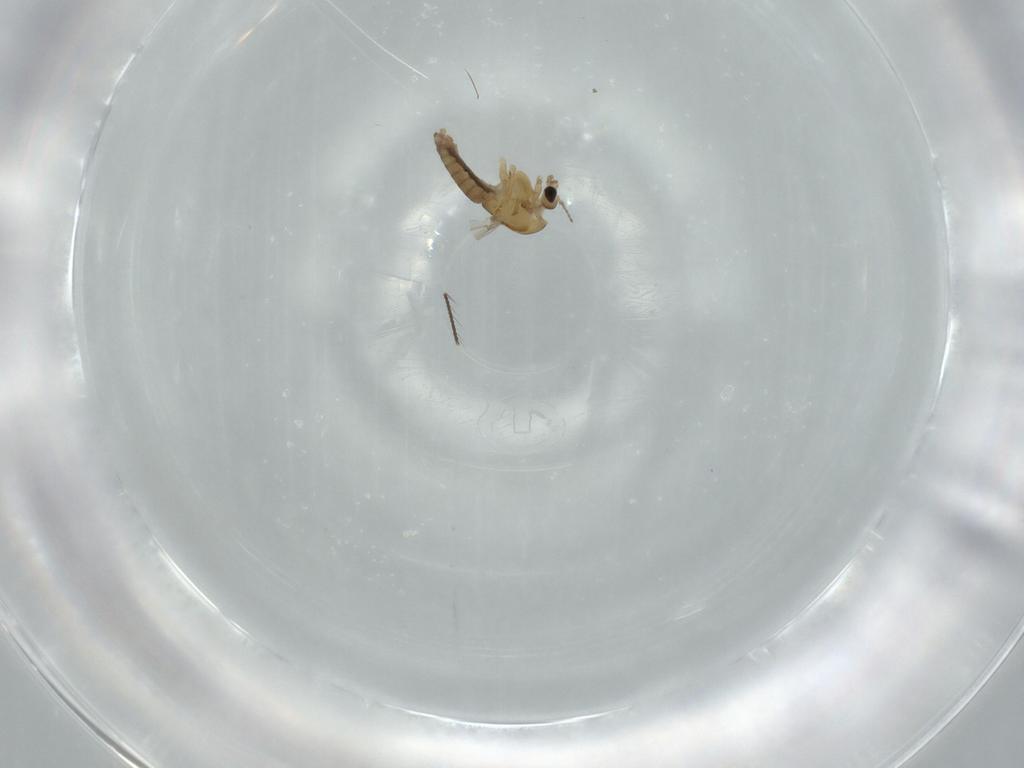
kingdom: Animalia
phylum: Arthropoda
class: Insecta
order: Diptera
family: Chironomidae
